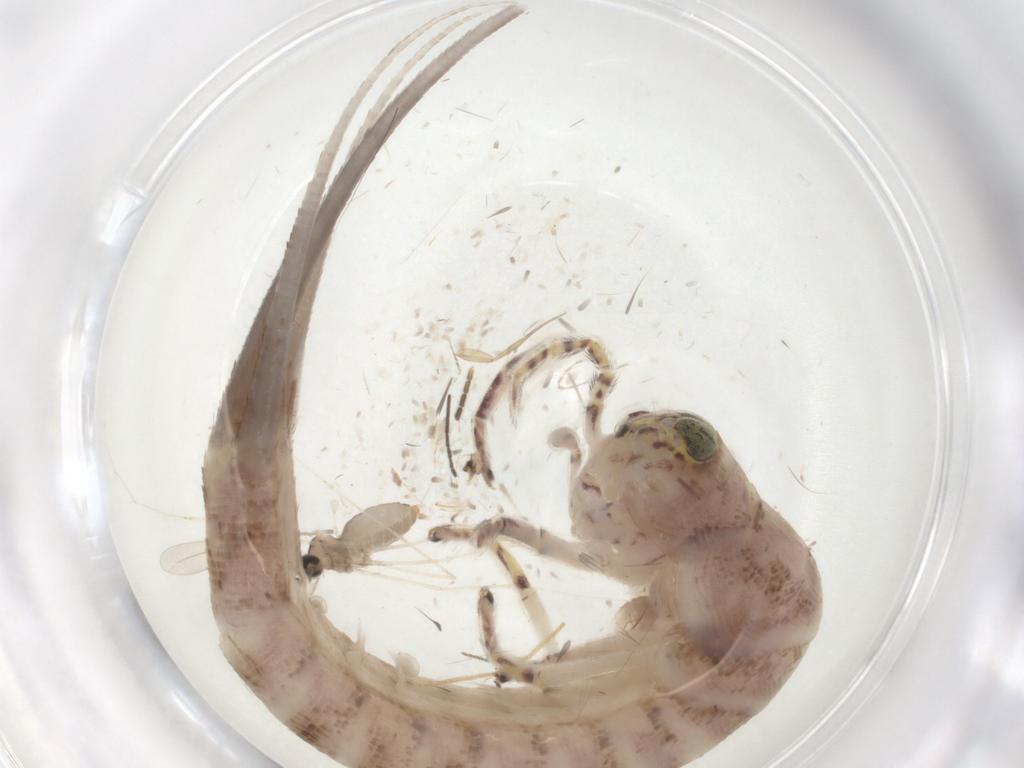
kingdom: Animalia
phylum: Arthropoda
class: Insecta
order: Archaeognatha
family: Machilidae
